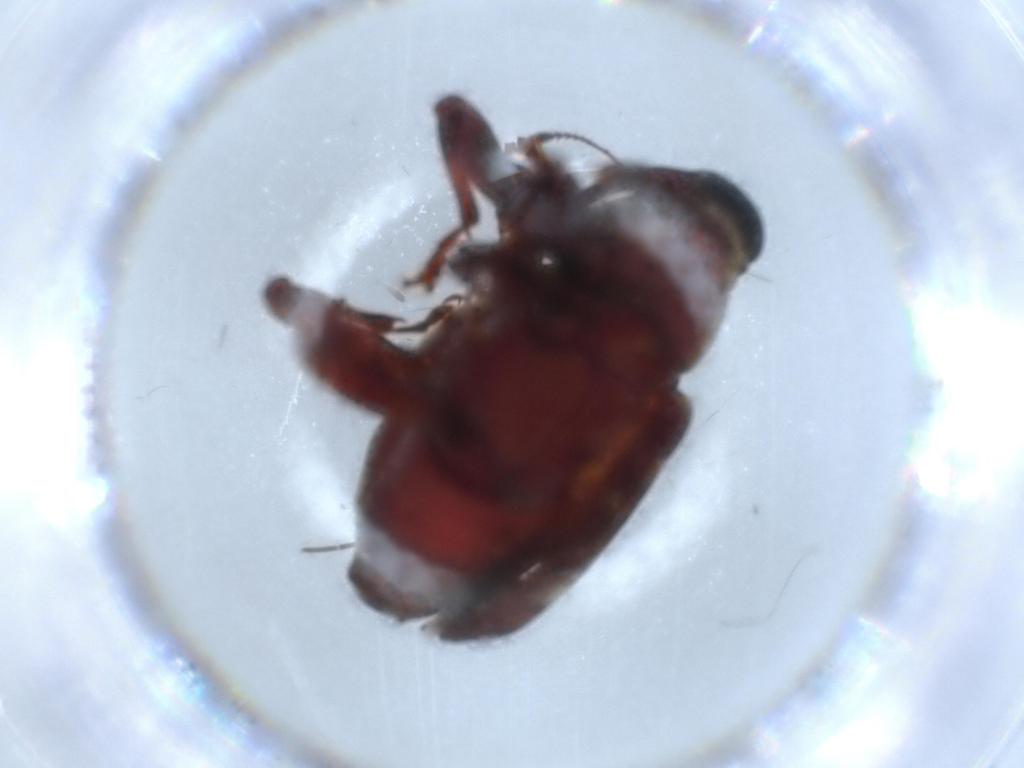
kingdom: Animalia
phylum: Arthropoda
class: Insecta
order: Coleoptera
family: Curculionidae
